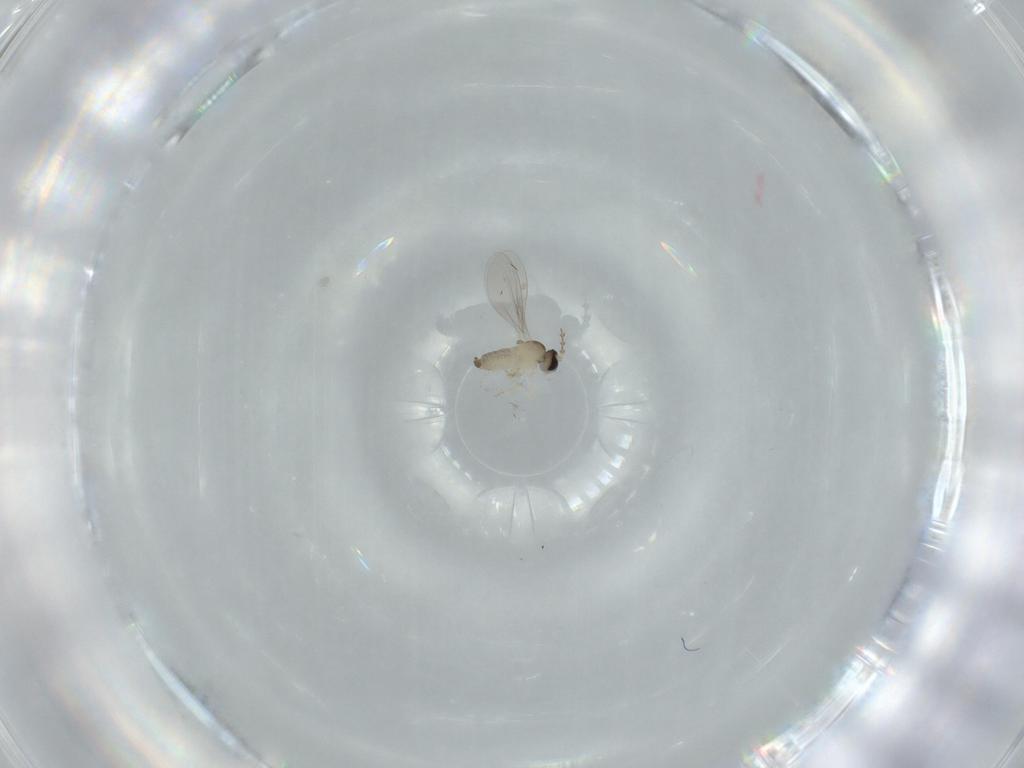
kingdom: Animalia
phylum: Arthropoda
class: Insecta
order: Diptera
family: Cecidomyiidae
